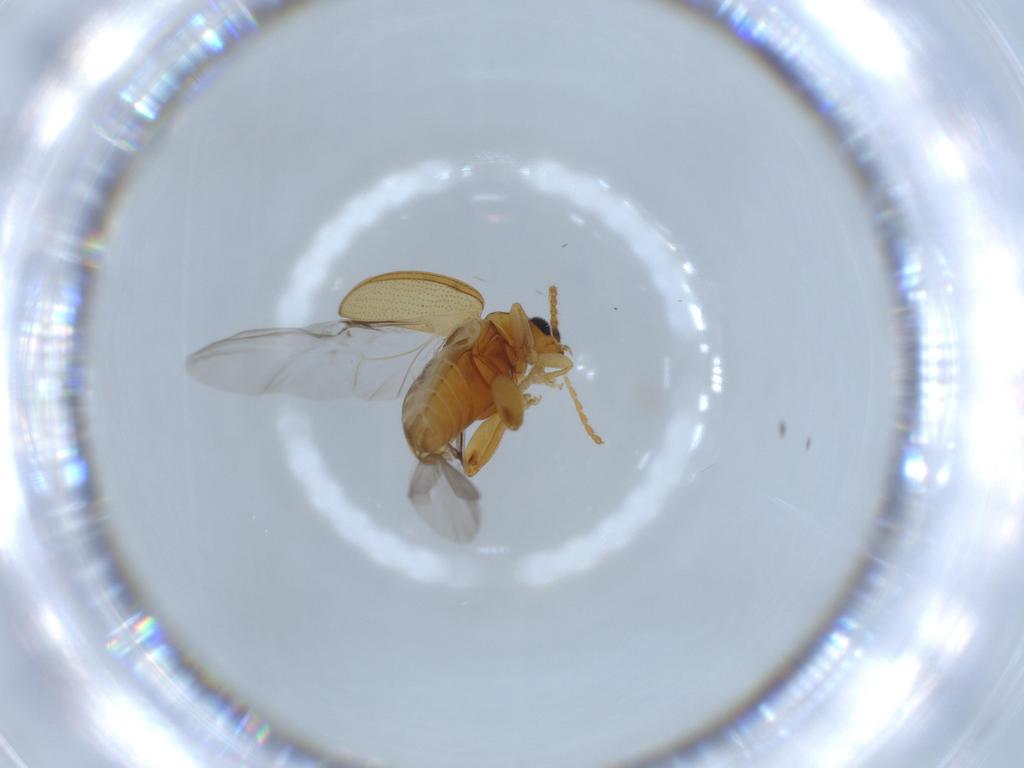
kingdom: Animalia
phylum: Arthropoda
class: Insecta
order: Coleoptera
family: Chrysomelidae
